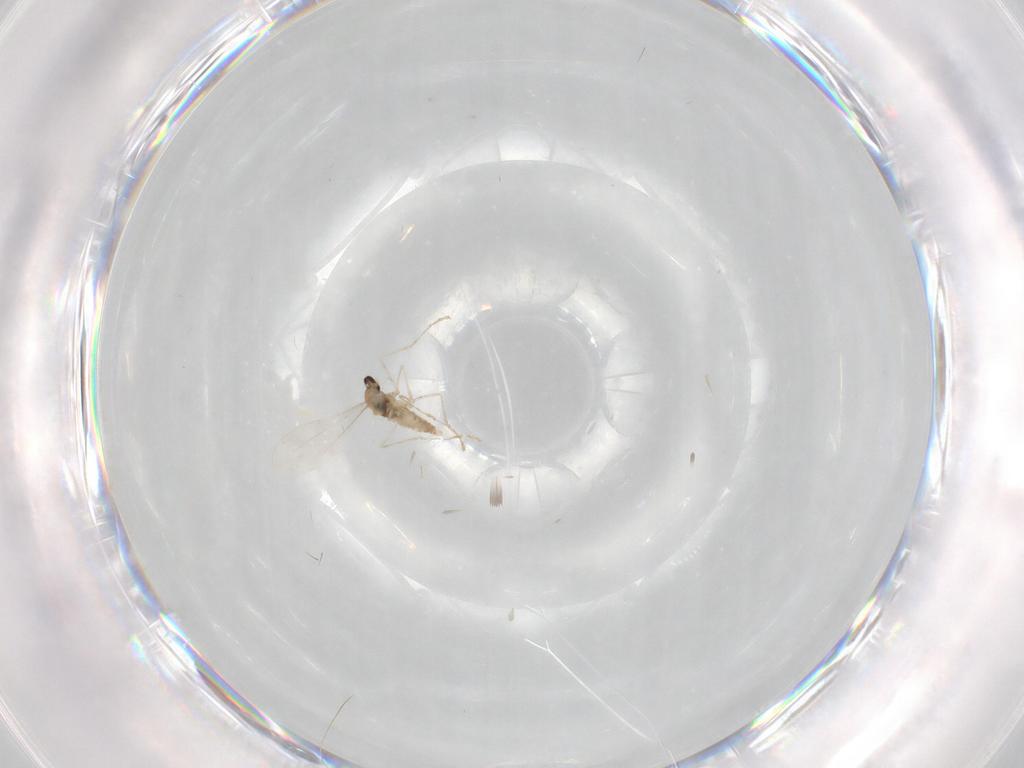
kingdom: Animalia
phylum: Arthropoda
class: Insecta
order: Diptera
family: Cecidomyiidae
